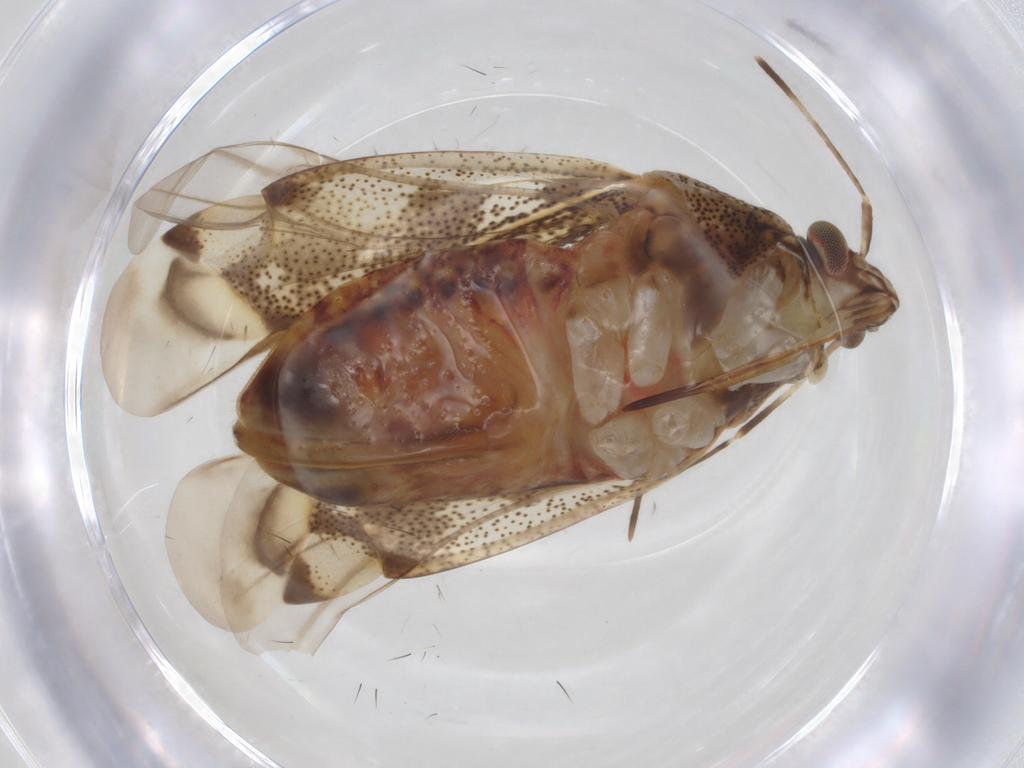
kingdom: Animalia
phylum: Arthropoda
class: Insecta
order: Hemiptera
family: Miridae
